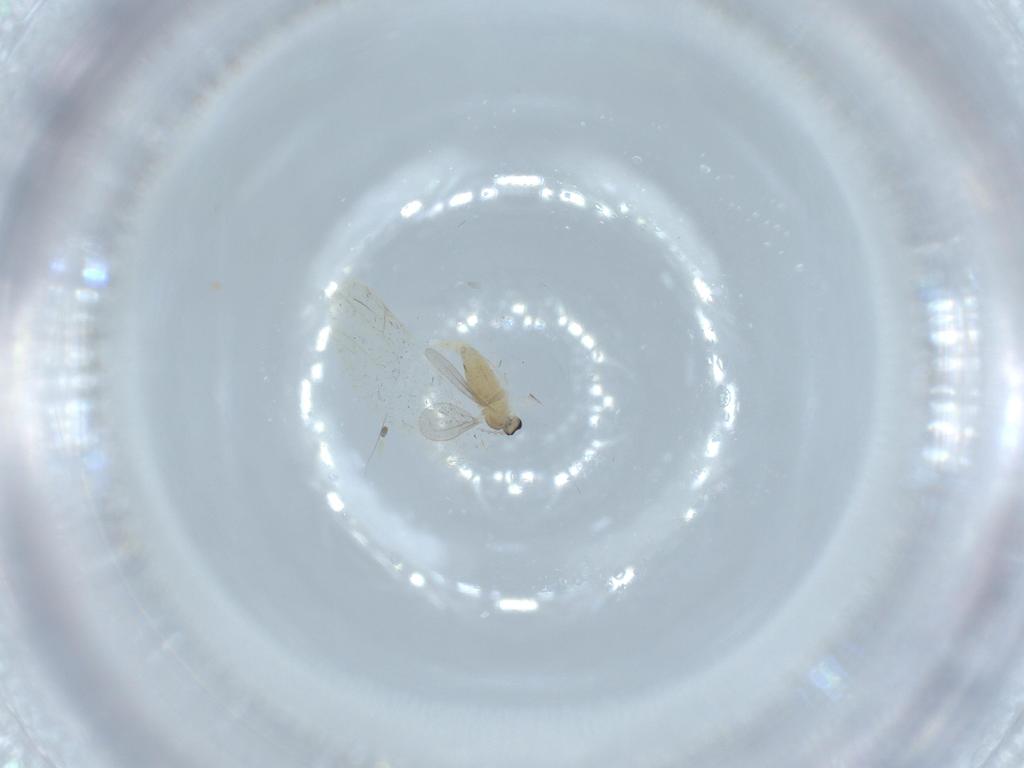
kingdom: Animalia
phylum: Arthropoda
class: Insecta
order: Diptera
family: Cecidomyiidae
